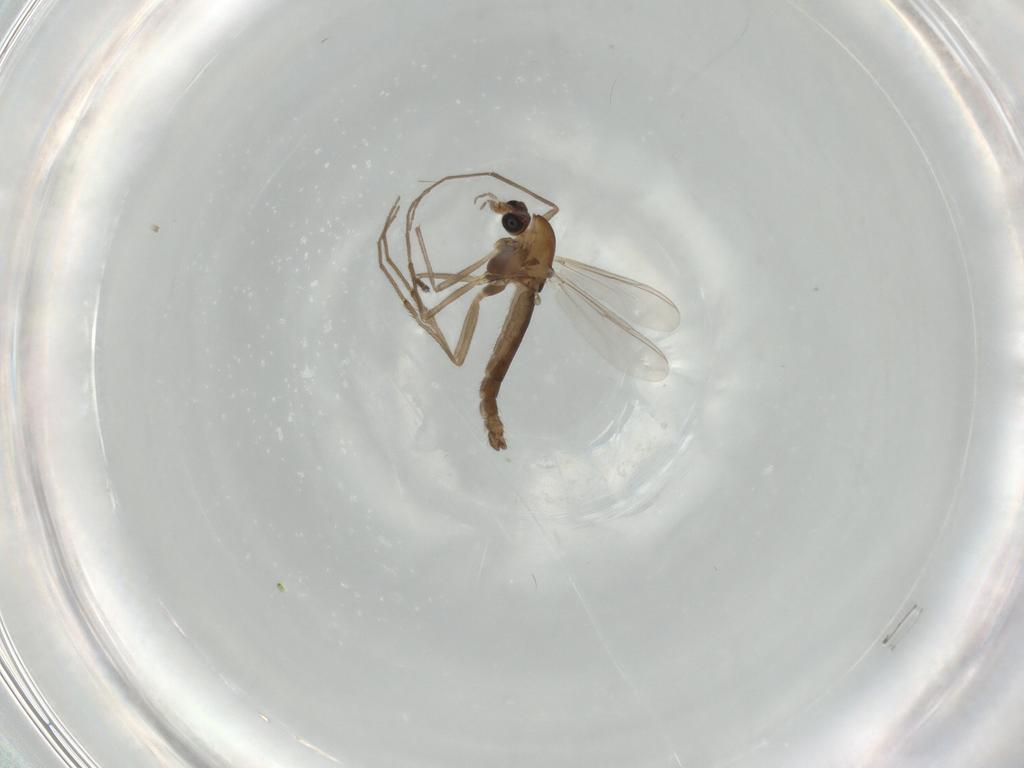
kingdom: Animalia
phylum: Arthropoda
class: Insecta
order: Diptera
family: Chironomidae
